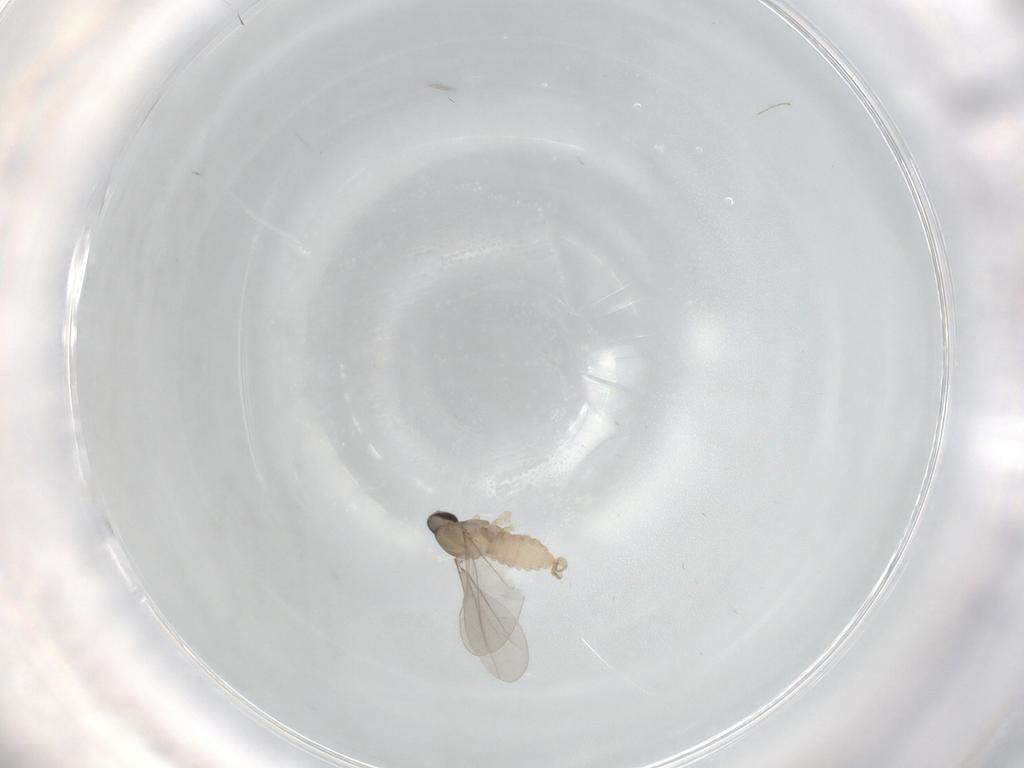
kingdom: Animalia
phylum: Arthropoda
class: Insecta
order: Diptera
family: Cecidomyiidae
